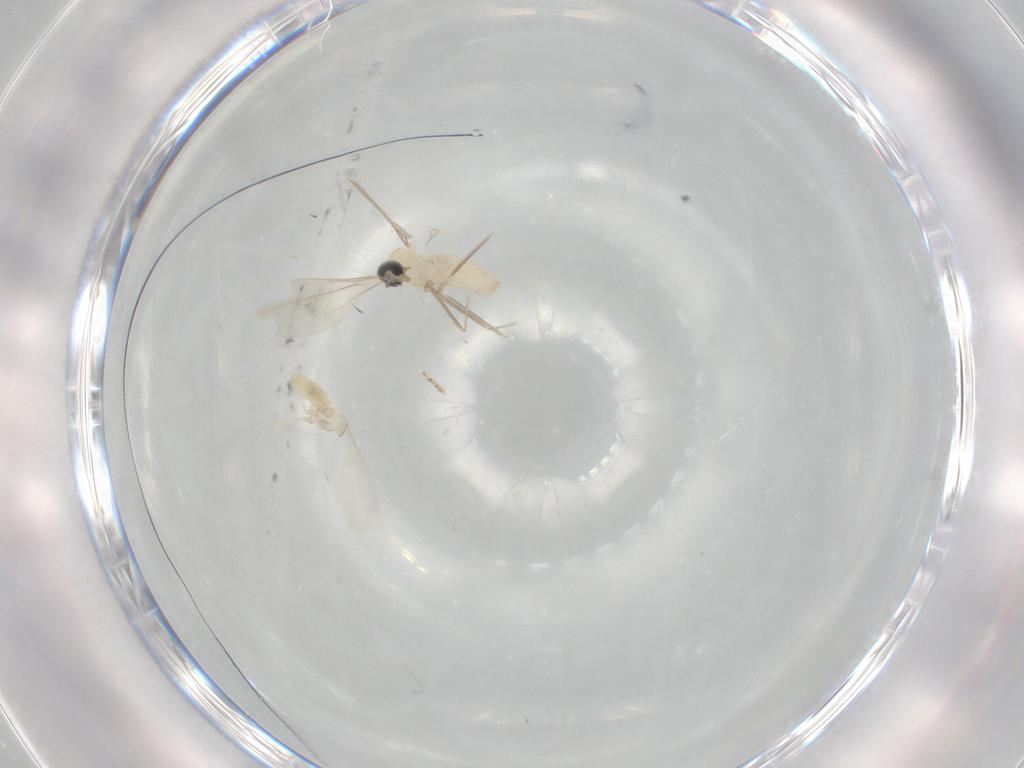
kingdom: Animalia
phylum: Arthropoda
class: Insecta
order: Diptera
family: Cecidomyiidae
